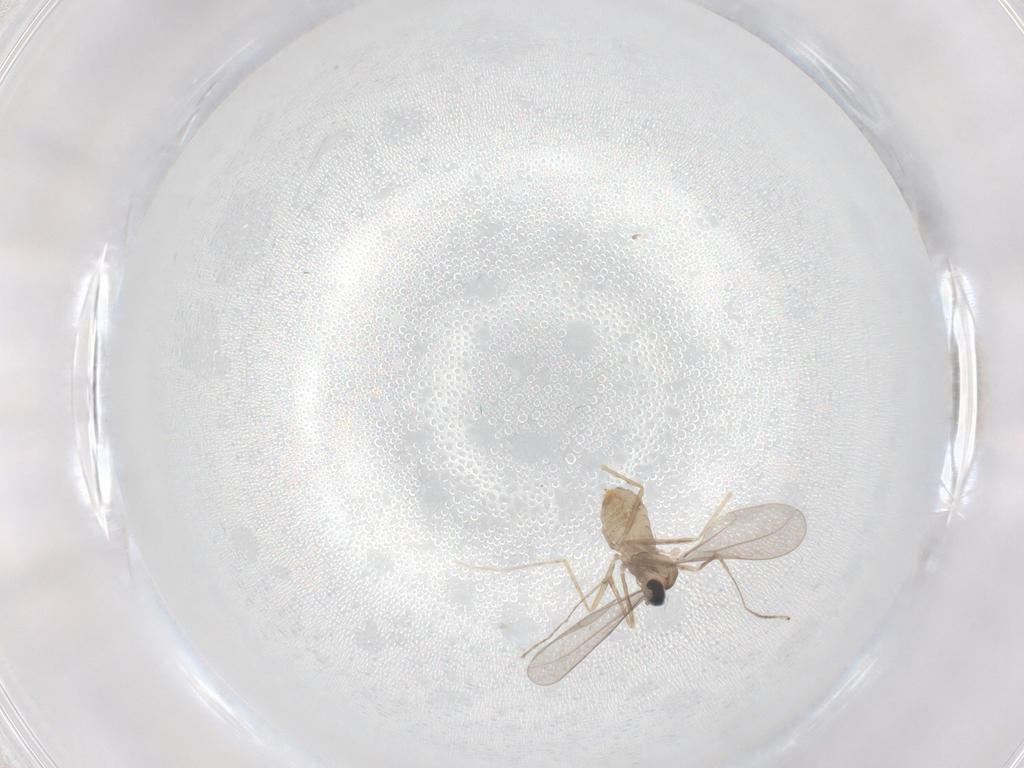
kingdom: Animalia
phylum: Arthropoda
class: Insecta
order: Diptera
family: Cecidomyiidae
